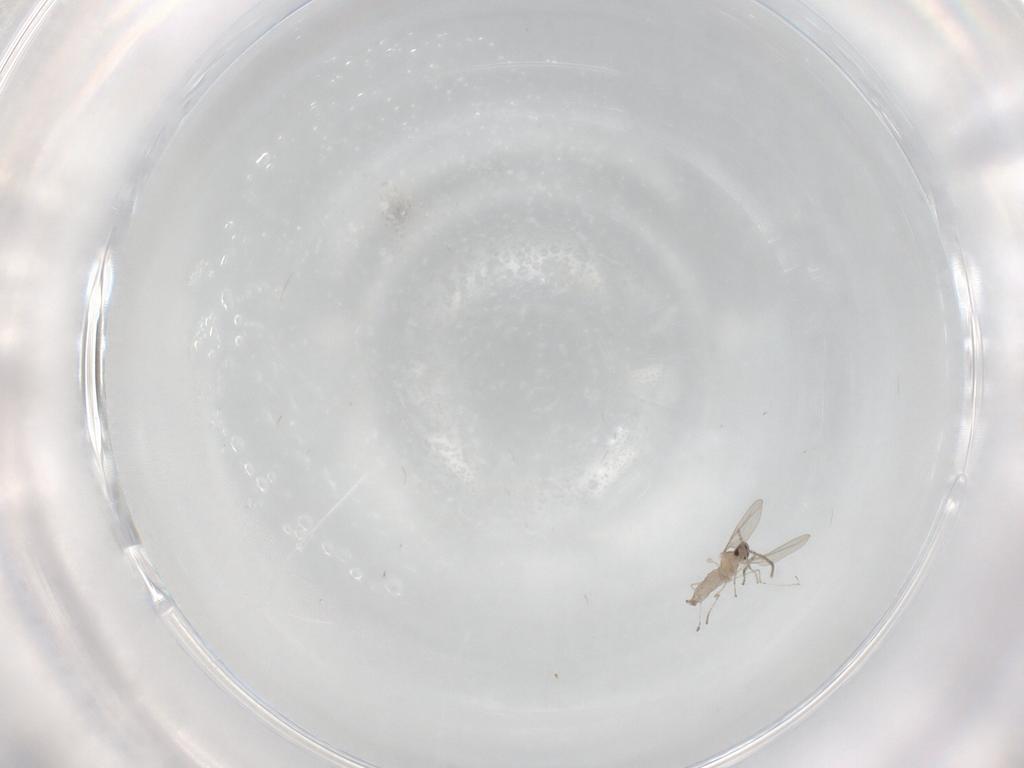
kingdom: Animalia
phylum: Arthropoda
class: Insecta
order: Diptera
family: Cecidomyiidae
